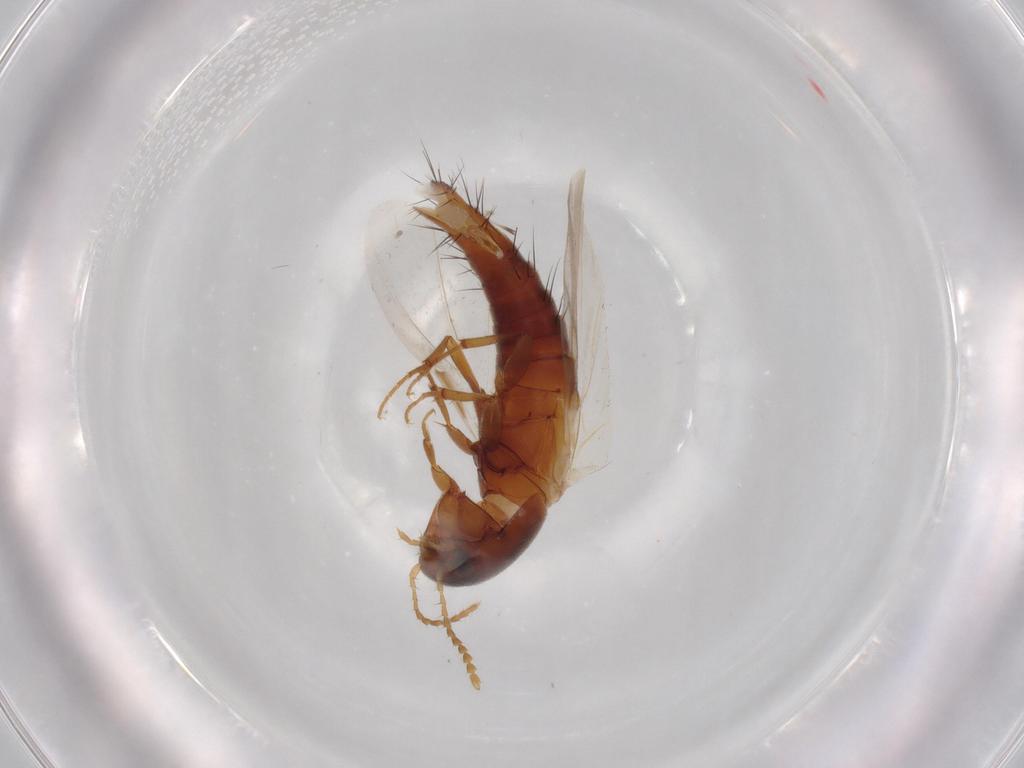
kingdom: Animalia
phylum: Arthropoda
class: Insecta
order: Coleoptera
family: Staphylinidae
